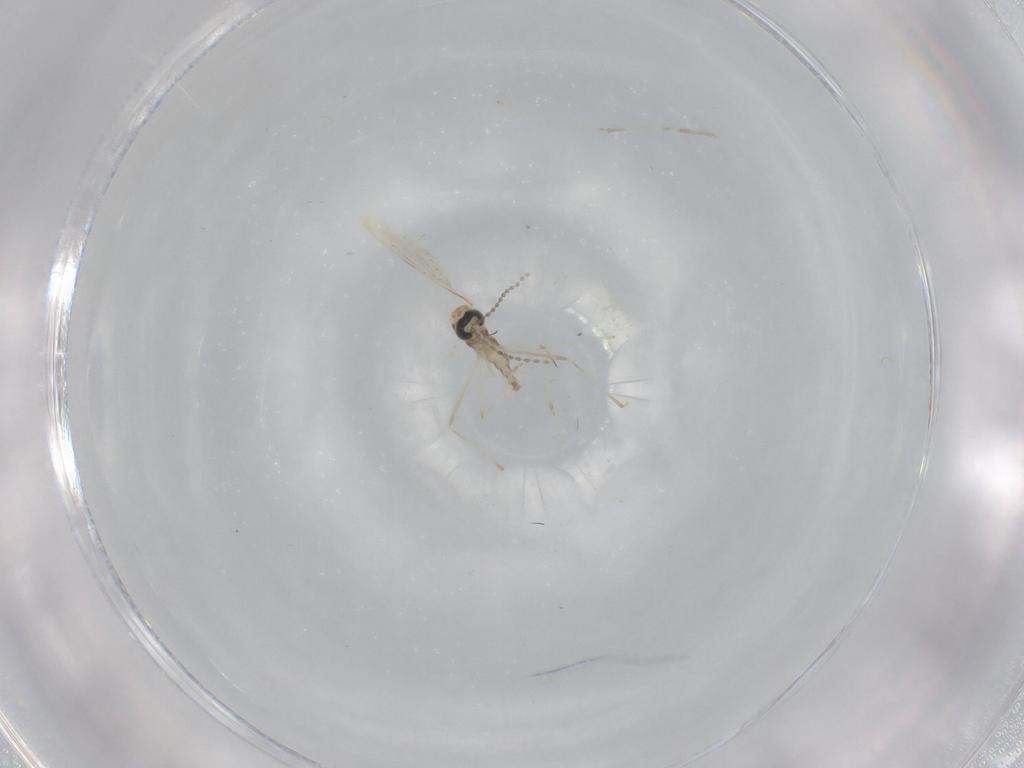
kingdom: Animalia
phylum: Arthropoda
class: Insecta
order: Diptera
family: Cecidomyiidae
